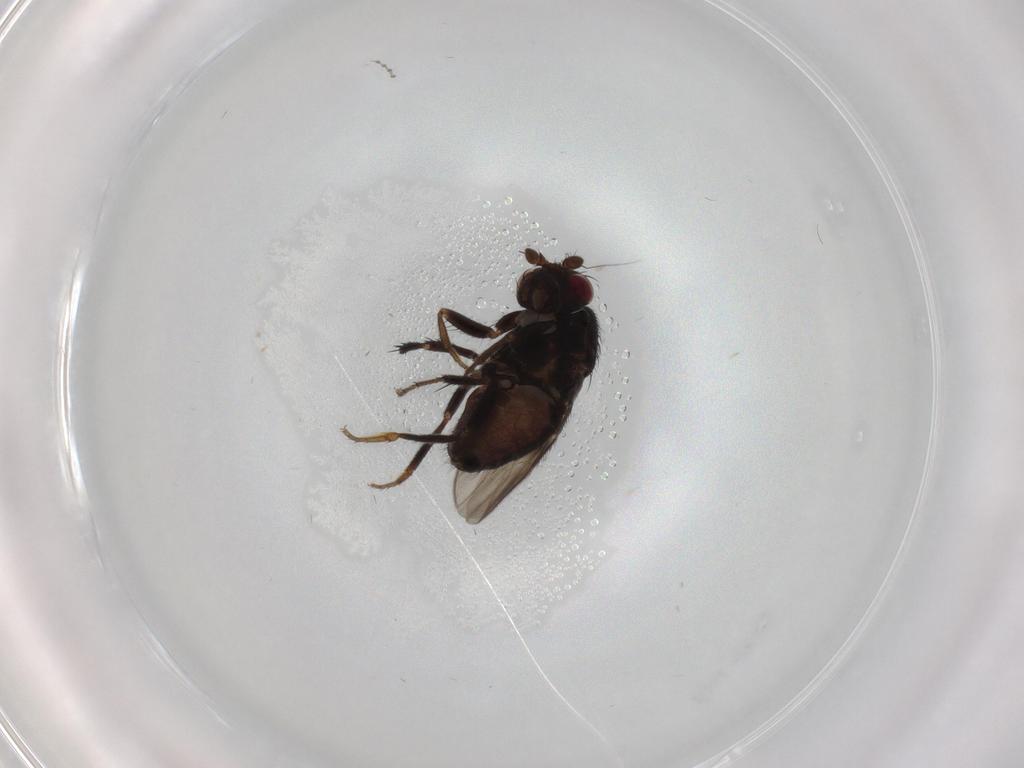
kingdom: Animalia
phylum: Arthropoda
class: Insecta
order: Diptera
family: Sphaeroceridae
